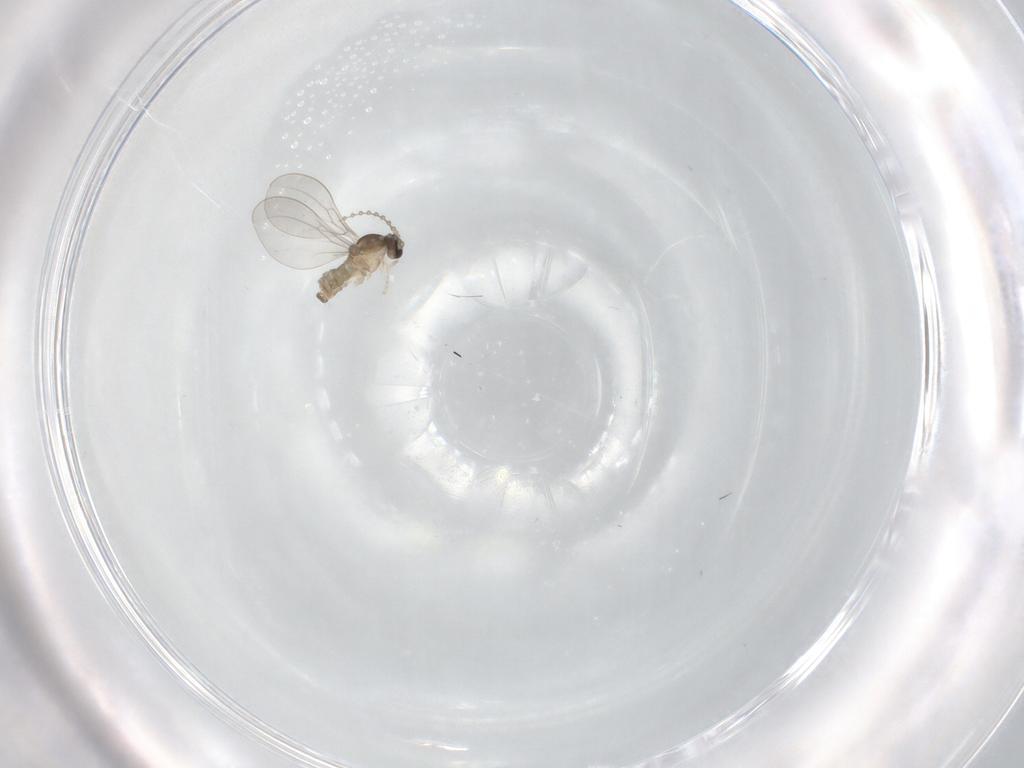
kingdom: Animalia
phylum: Arthropoda
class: Insecta
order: Diptera
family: Cecidomyiidae
